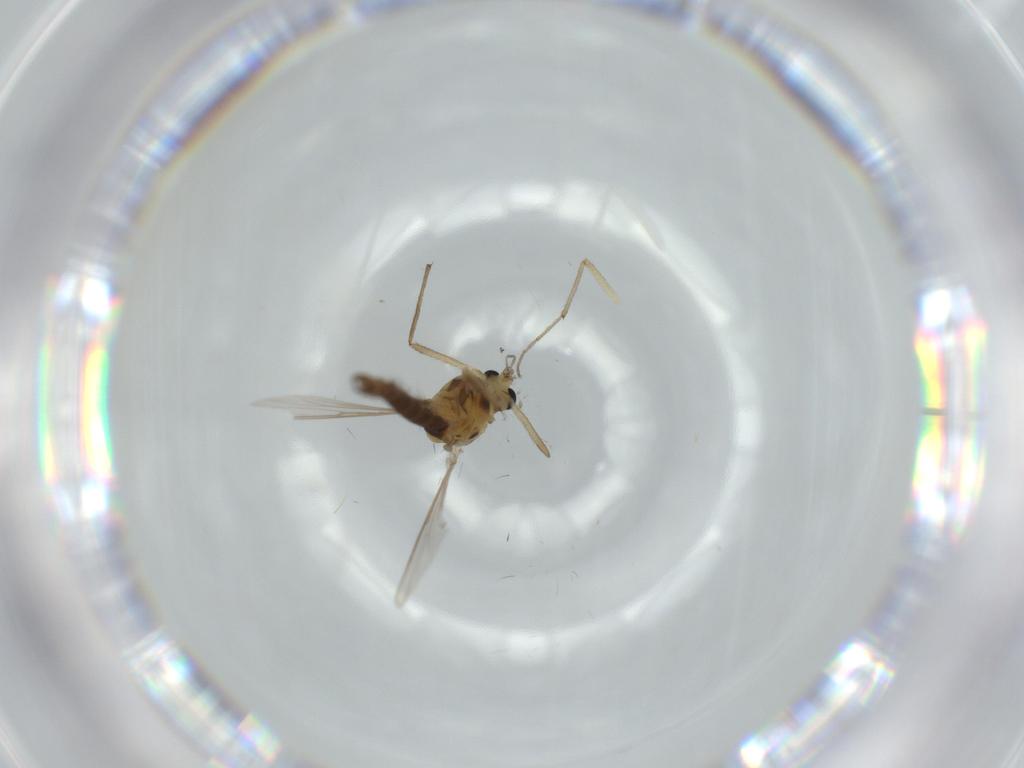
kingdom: Animalia
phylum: Arthropoda
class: Insecta
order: Diptera
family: Chironomidae
